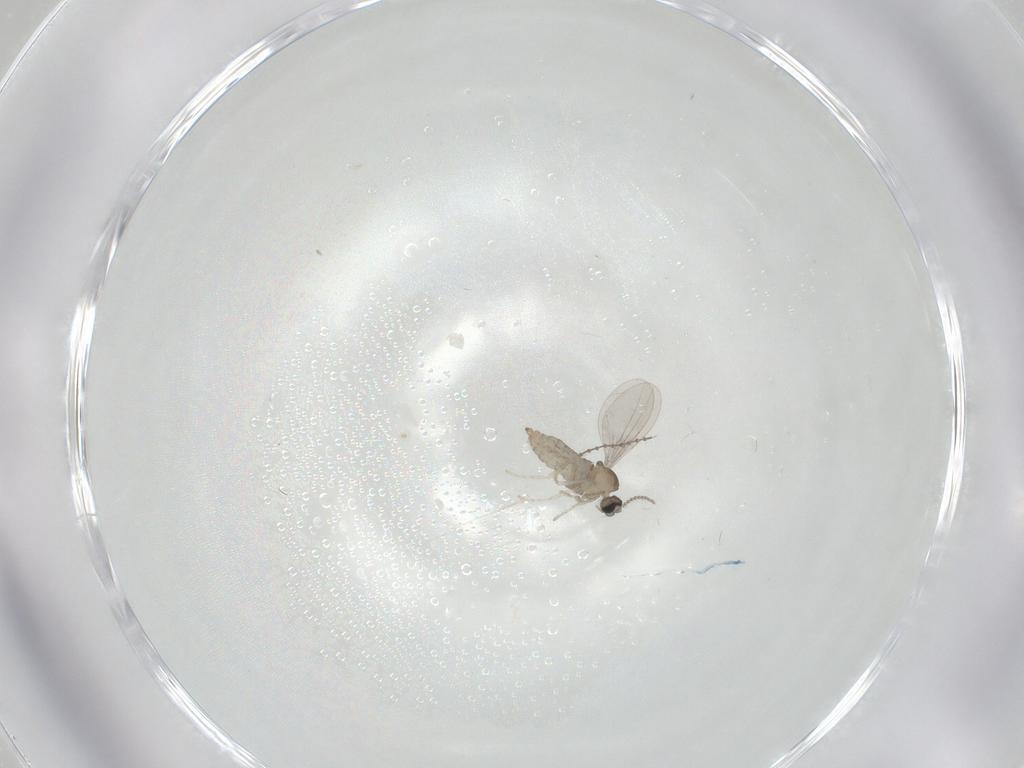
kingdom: Animalia
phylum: Arthropoda
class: Insecta
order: Diptera
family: Cecidomyiidae
